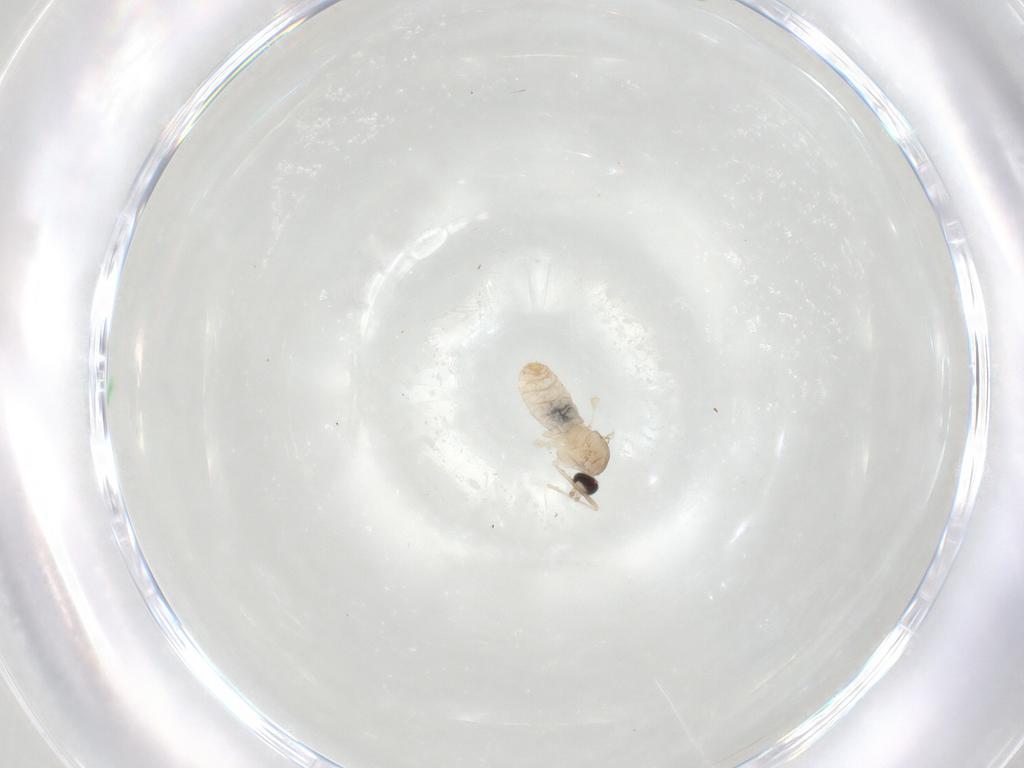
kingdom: Animalia
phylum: Arthropoda
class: Insecta
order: Diptera
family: Cecidomyiidae
